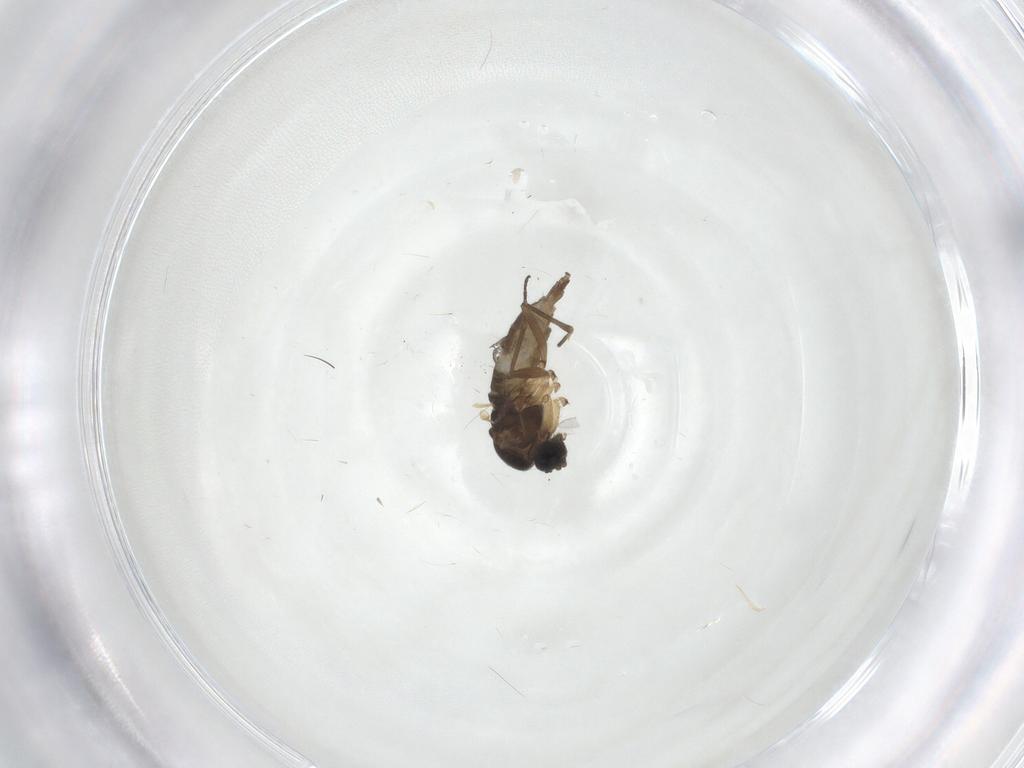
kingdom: Animalia
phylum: Arthropoda
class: Insecta
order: Diptera
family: Sciaridae
